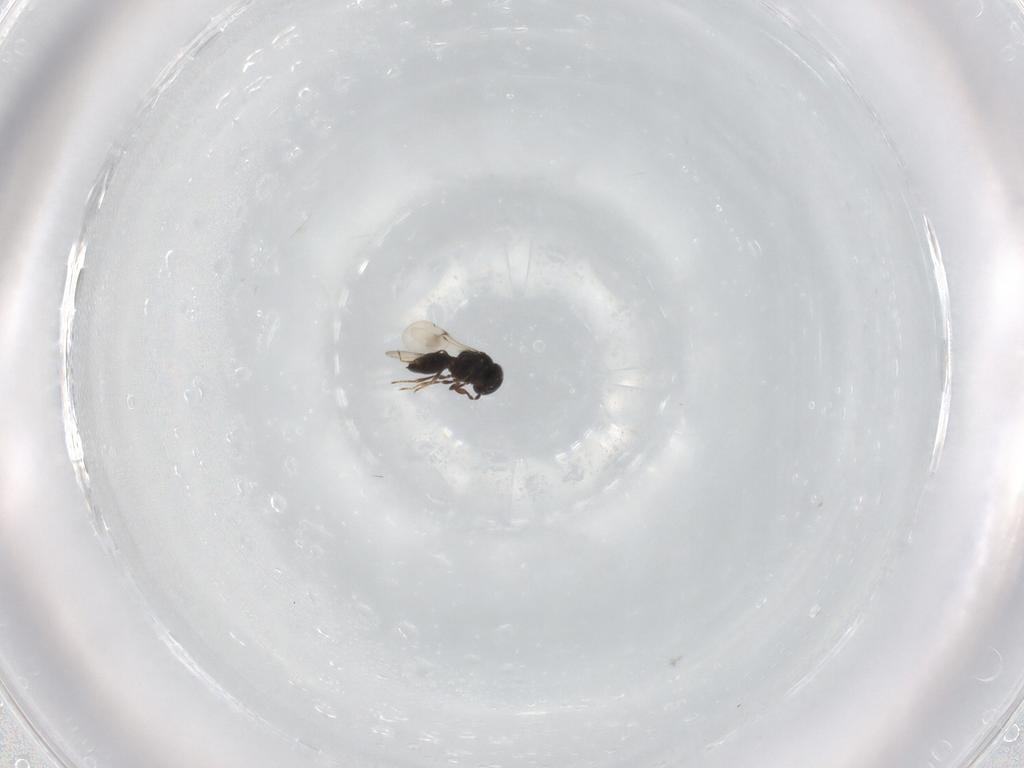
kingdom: Animalia
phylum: Arthropoda
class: Insecta
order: Hymenoptera
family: Scelionidae
